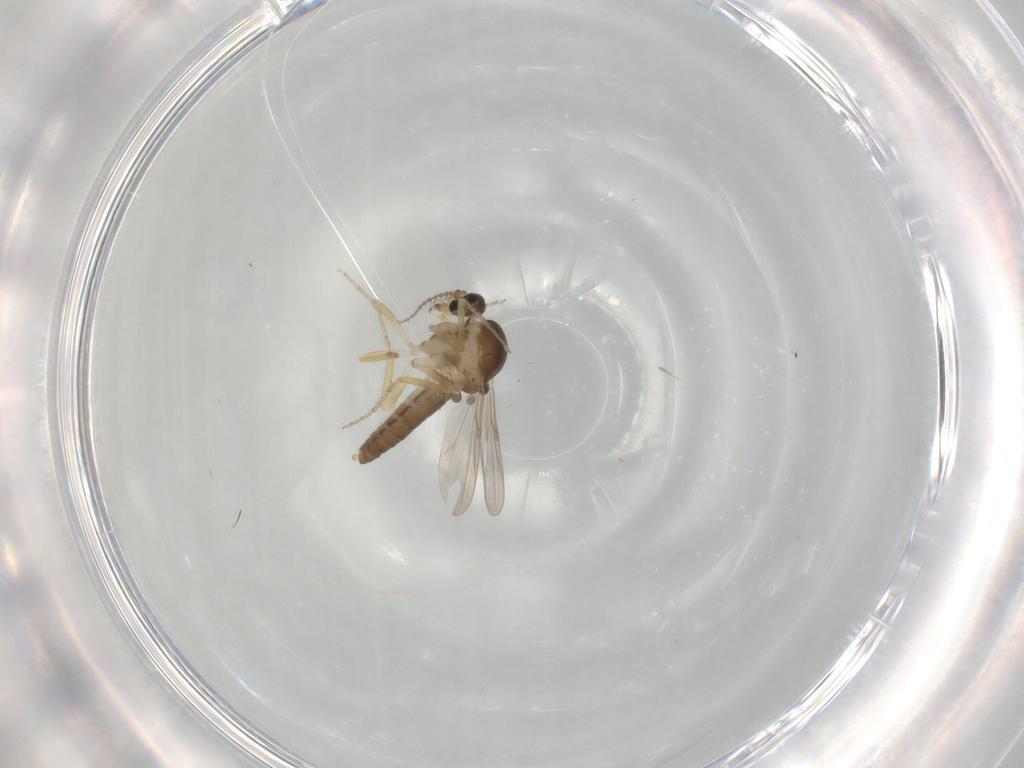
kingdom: Animalia
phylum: Arthropoda
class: Insecta
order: Diptera
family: Ceratopogonidae
